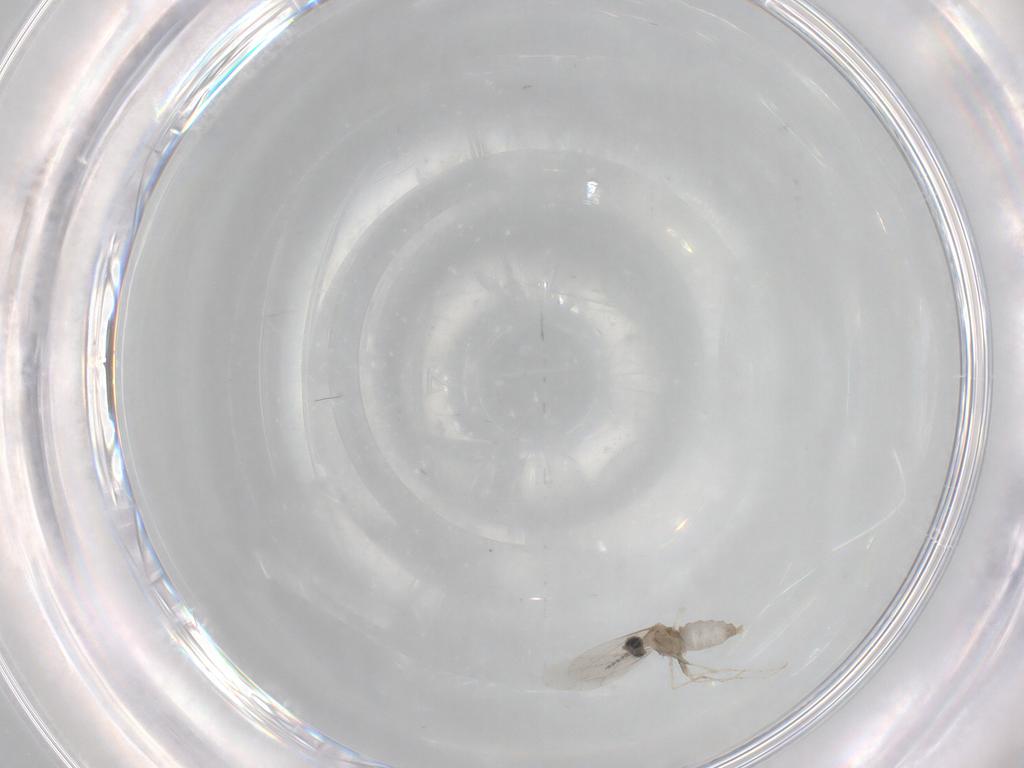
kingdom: Animalia
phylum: Arthropoda
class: Insecta
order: Diptera
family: Cecidomyiidae
